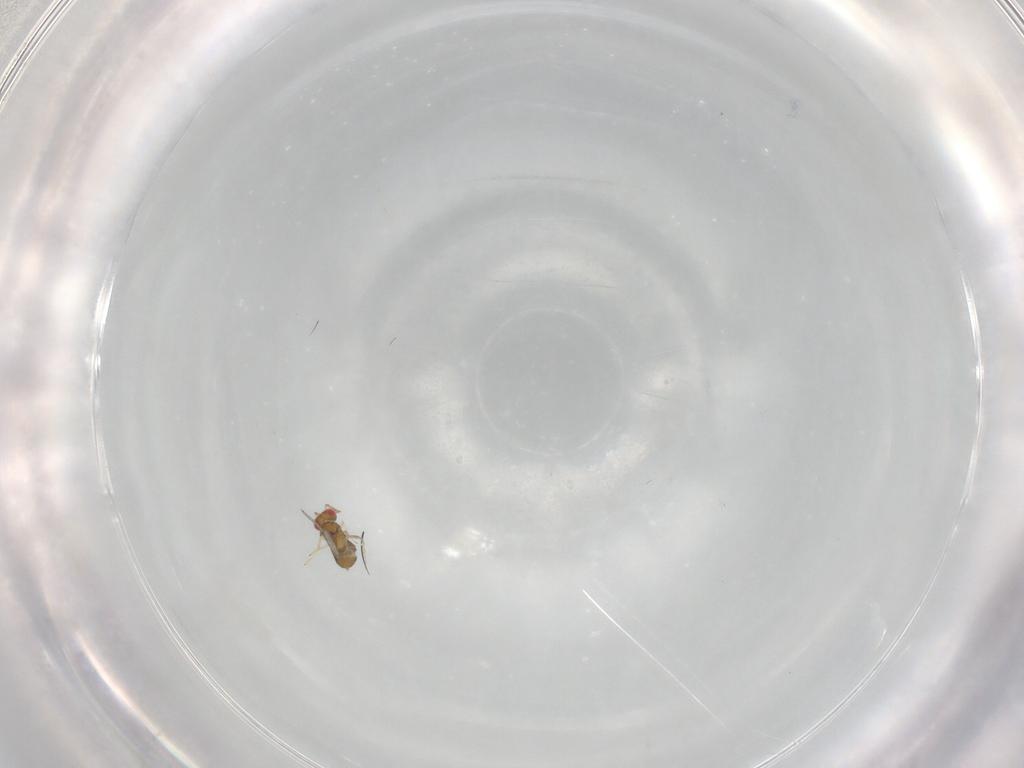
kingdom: Animalia
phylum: Arthropoda
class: Insecta
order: Hymenoptera
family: Trichogrammatidae
